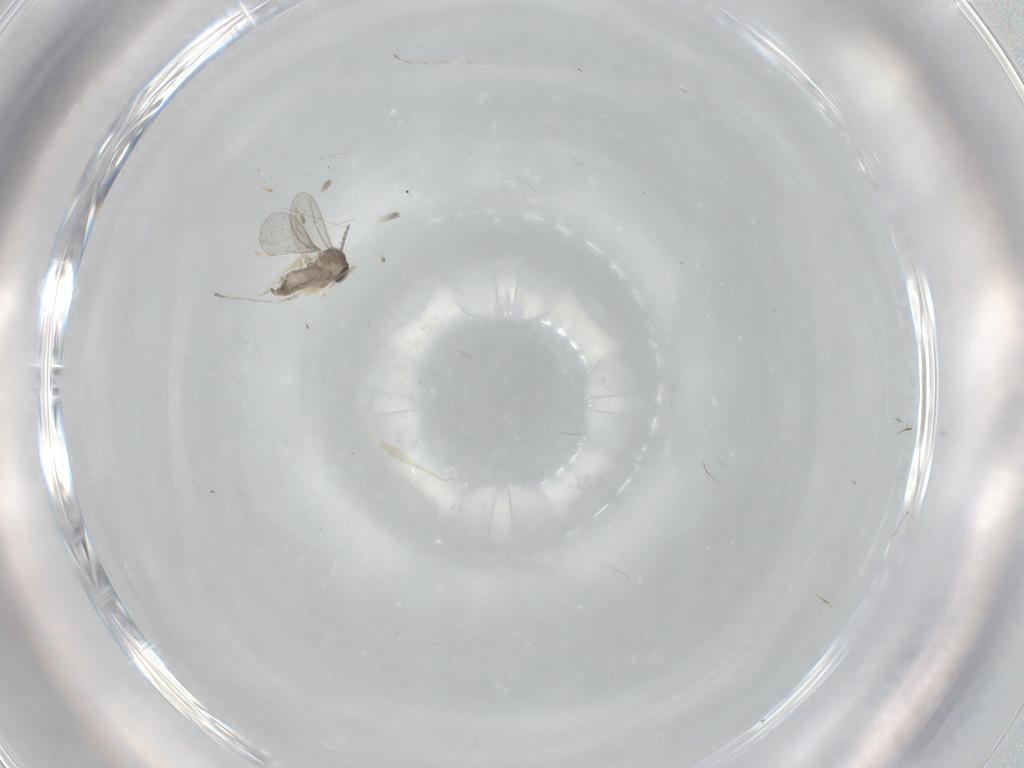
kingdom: Animalia
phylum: Arthropoda
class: Insecta
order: Diptera
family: Cecidomyiidae
